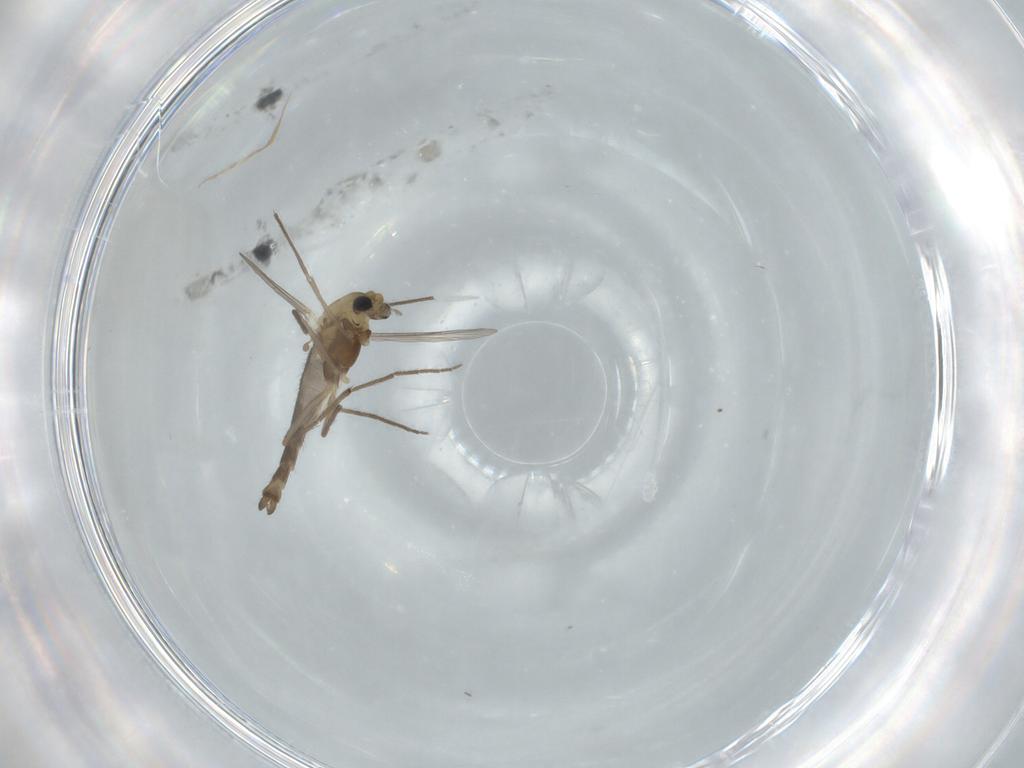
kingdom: Animalia
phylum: Arthropoda
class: Insecta
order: Diptera
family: Chironomidae
